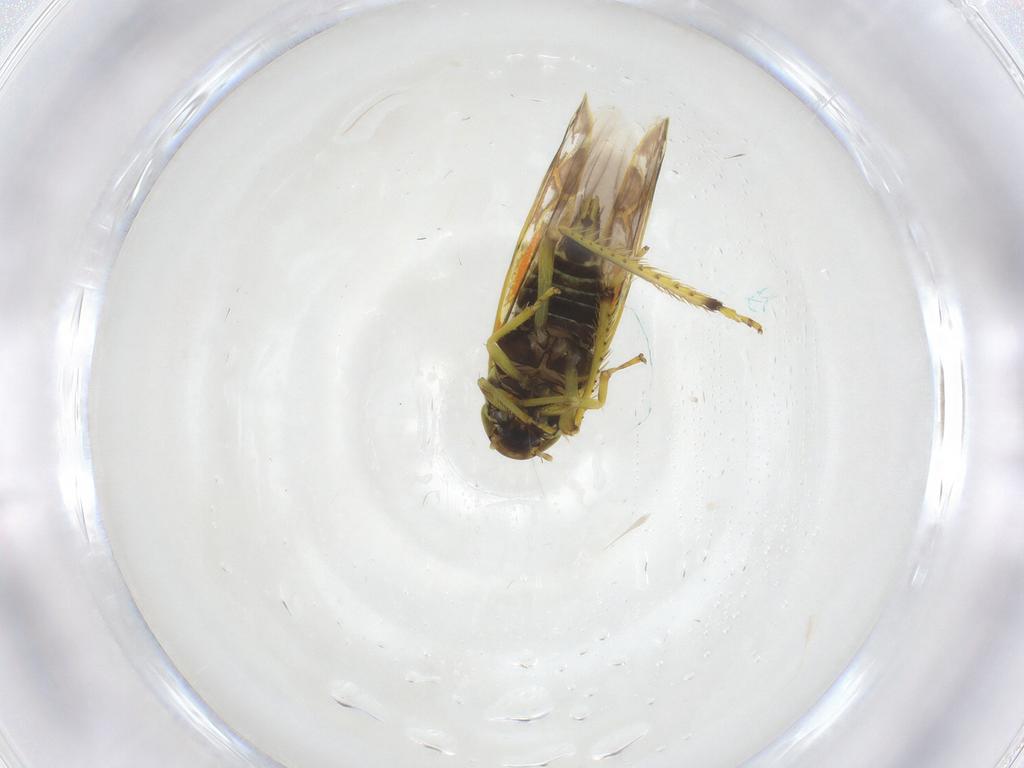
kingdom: Animalia
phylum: Arthropoda
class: Insecta
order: Hemiptera
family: Cicadellidae
